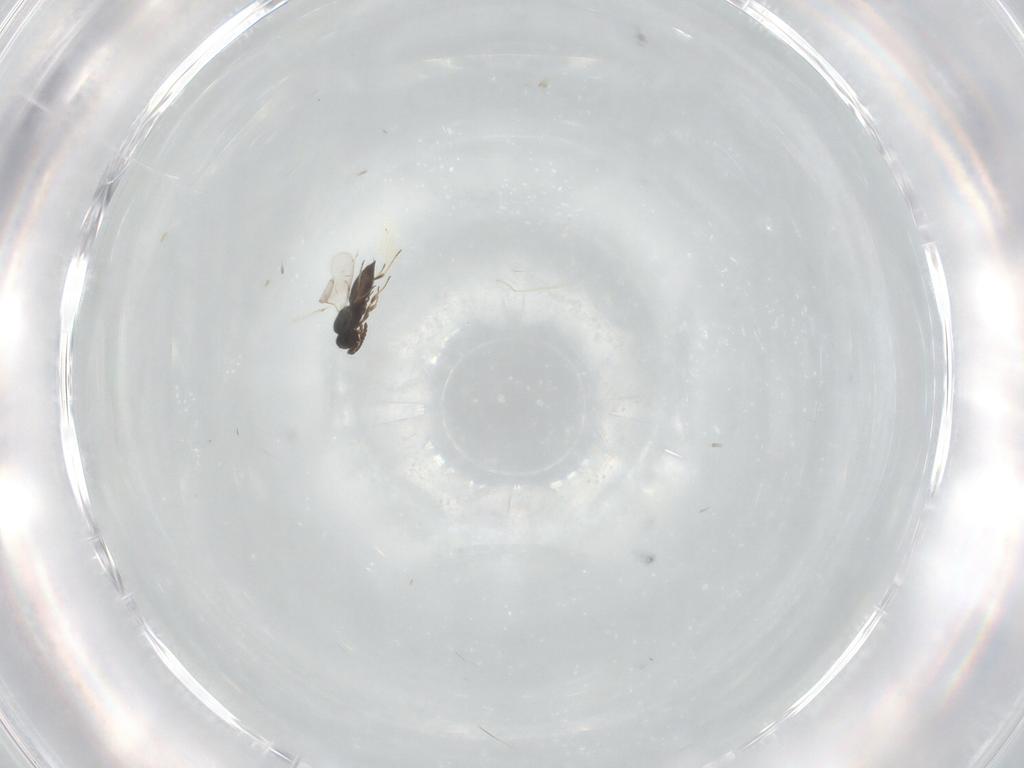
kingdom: Animalia
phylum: Arthropoda
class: Insecta
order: Hymenoptera
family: Scelionidae
